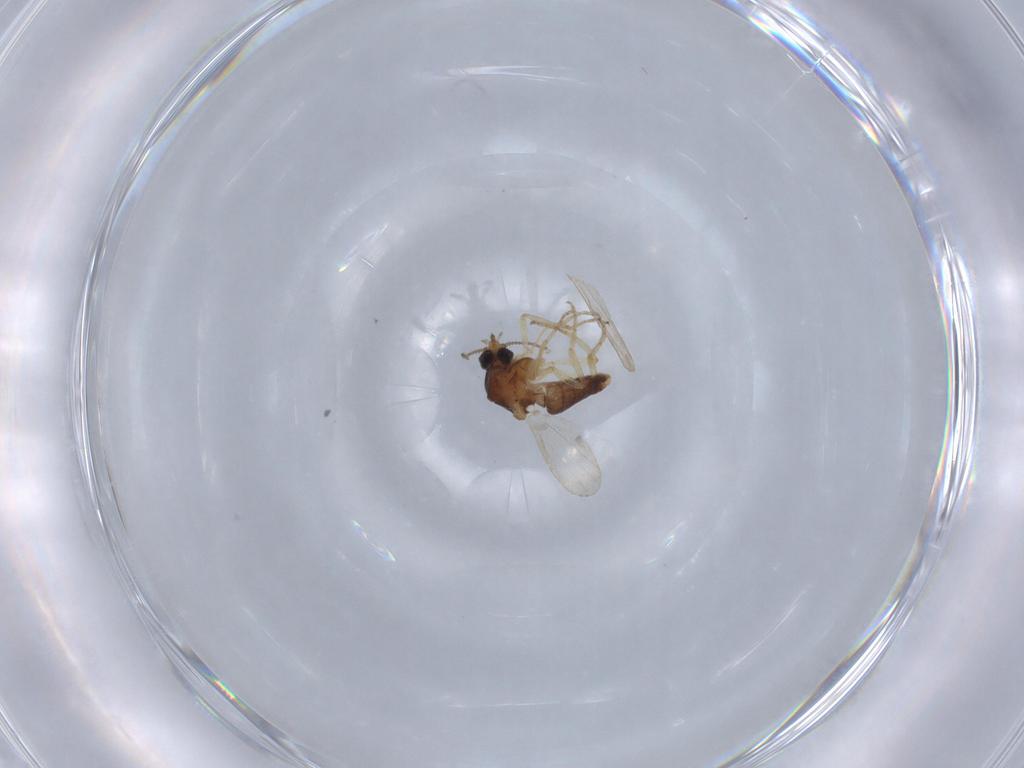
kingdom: Animalia
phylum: Arthropoda
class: Insecta
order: Diptera
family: Ceratopogonidae
